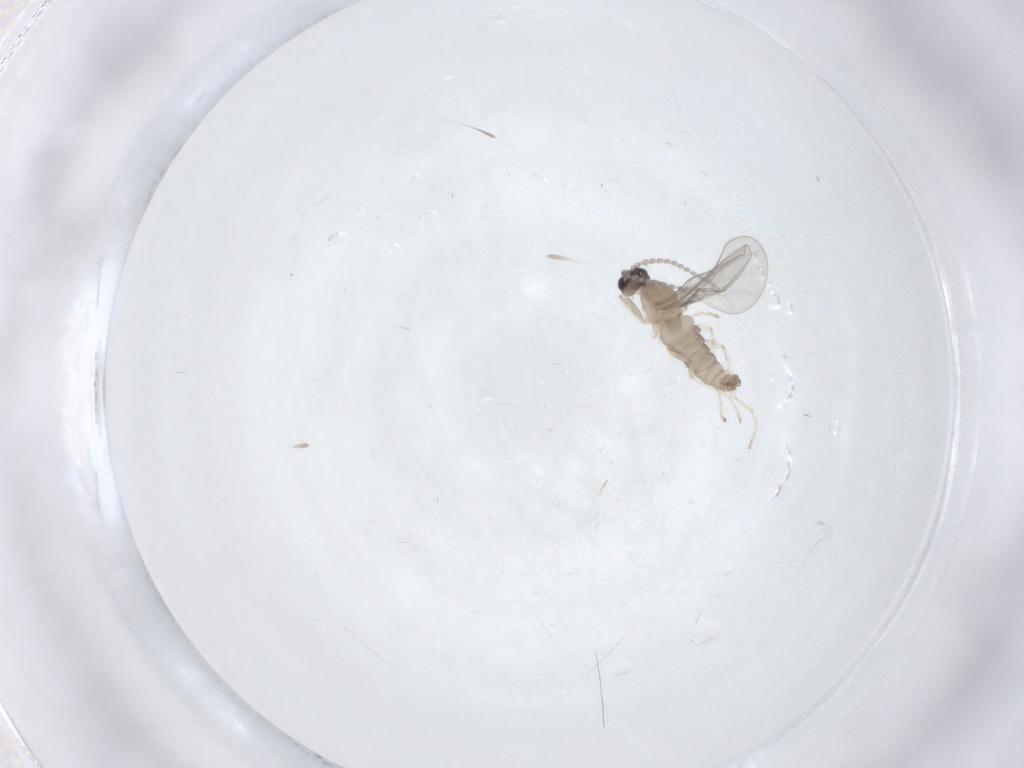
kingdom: Animalia
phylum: Arthropoda
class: Insecta
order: Diptera
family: Cecidomyiidae
